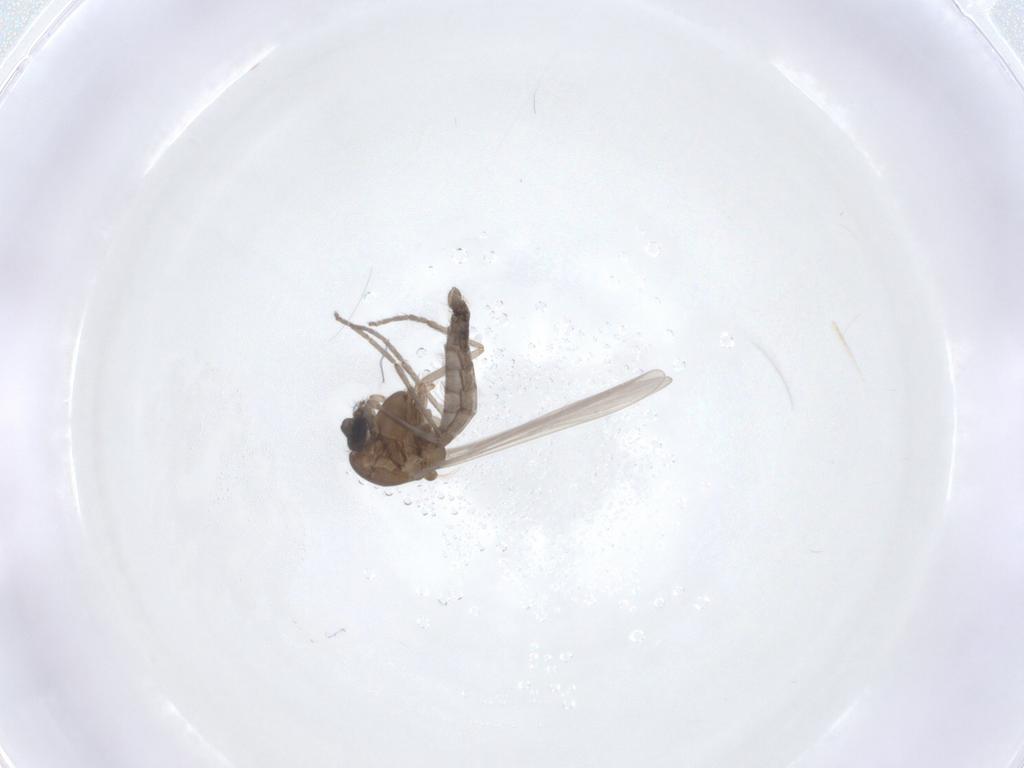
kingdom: Animalia
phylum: Arthropoda
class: Insecta
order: Diptera
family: Chironomidae
